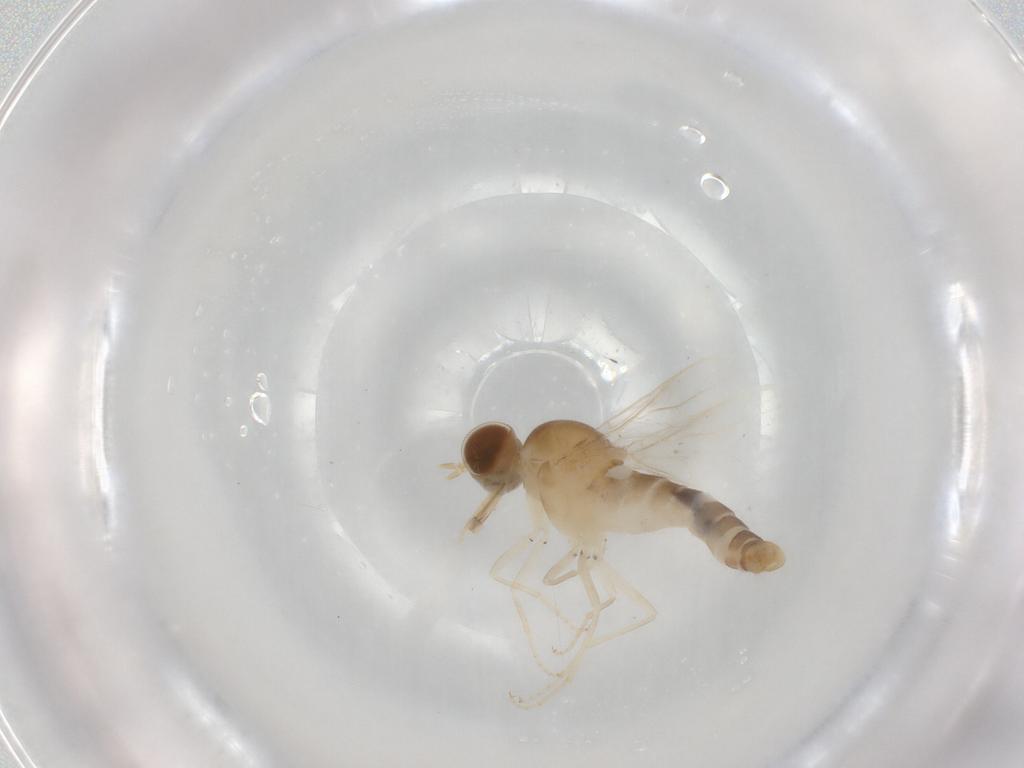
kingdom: Animalia
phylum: Arthropoda
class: Insecta
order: Diptera
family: Scenopinidae
